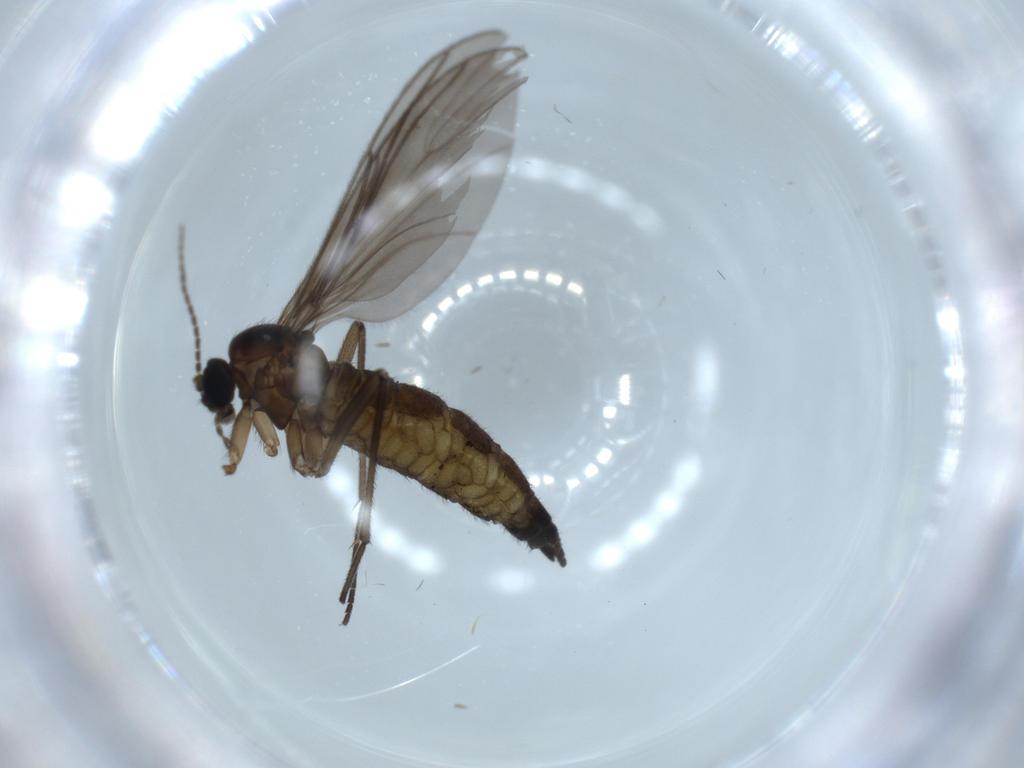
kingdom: Animalia
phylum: Arthropoda
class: Insecta
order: Diptera
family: Sciaridae
